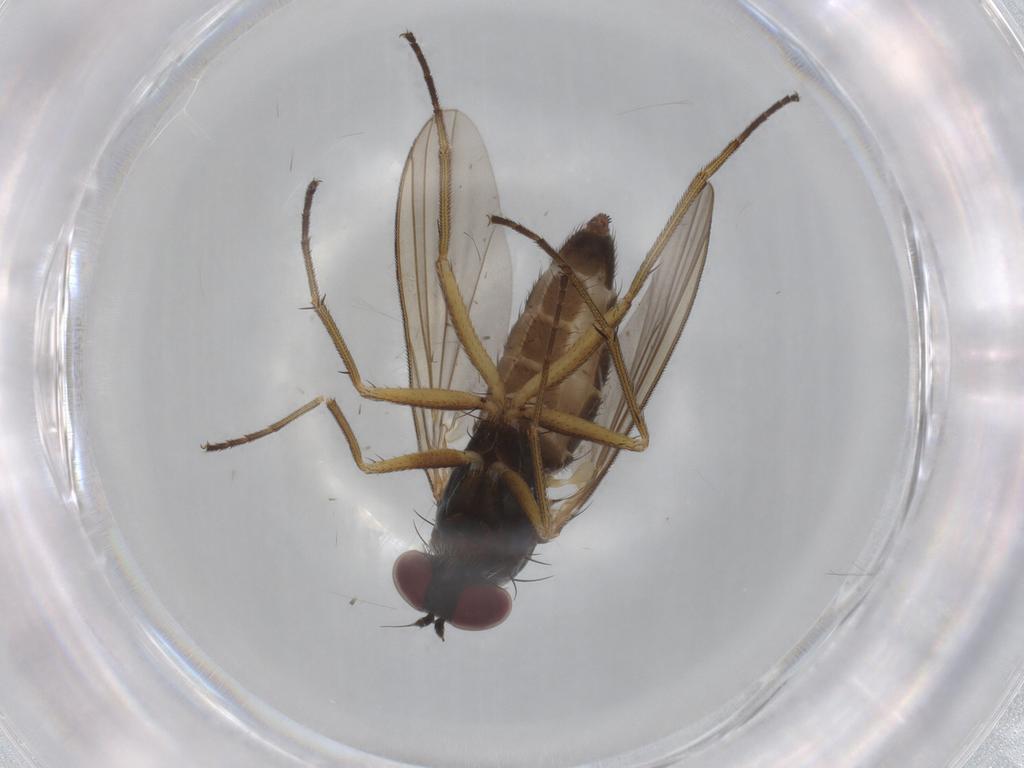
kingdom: Animalia
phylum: Arthropoda
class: Insecta
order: Diptera
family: Dolichopodidae
